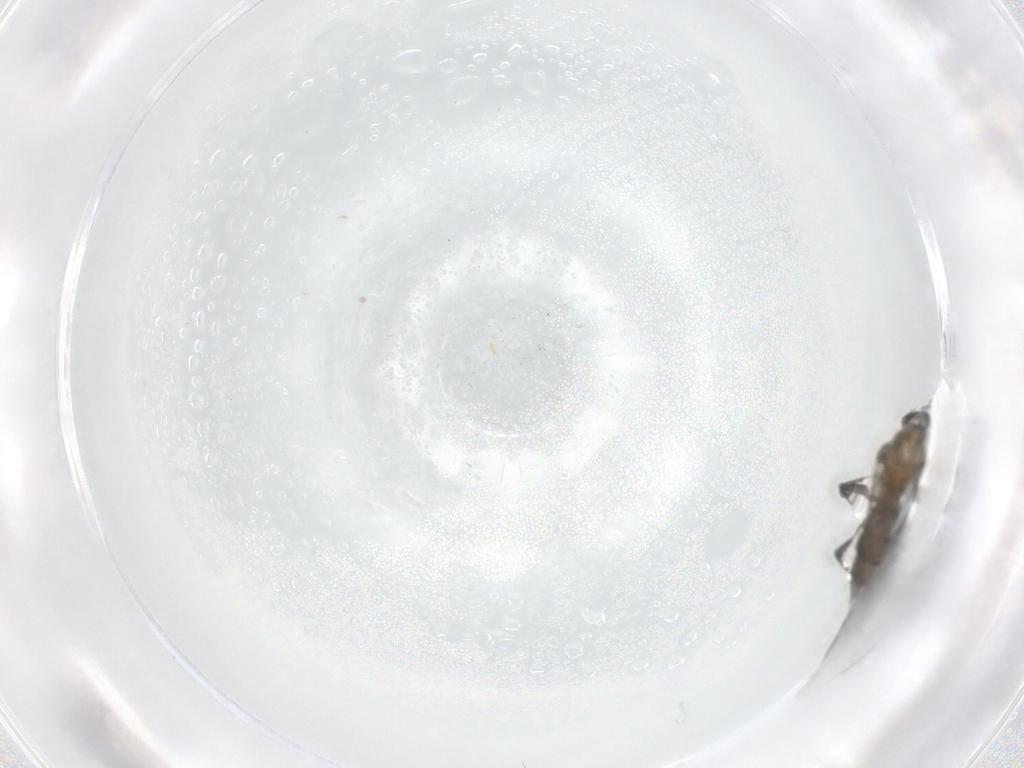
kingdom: Animalia
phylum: Arthropoda
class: Insecta
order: Diptera
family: Sciaridae
